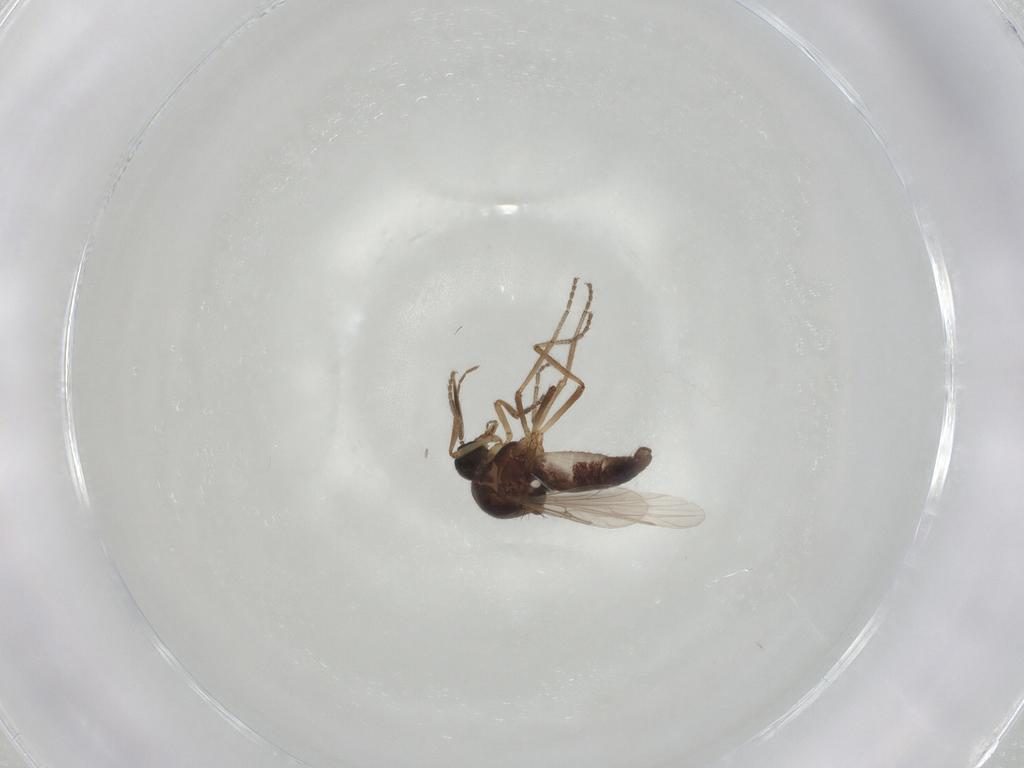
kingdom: Animalia
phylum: Arthropoda
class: Insecta
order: Diptera
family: Ceratopogonidae
